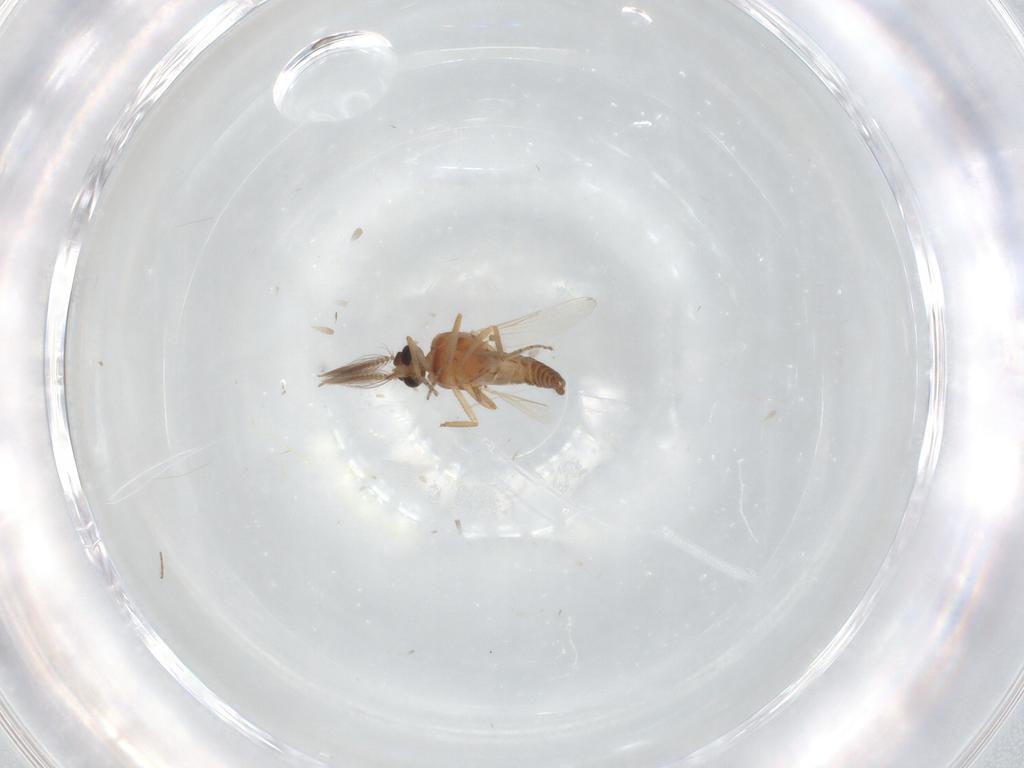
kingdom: Animalia
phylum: Arthropoda
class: Insecta
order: Diptera
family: Ceratopogonidae
